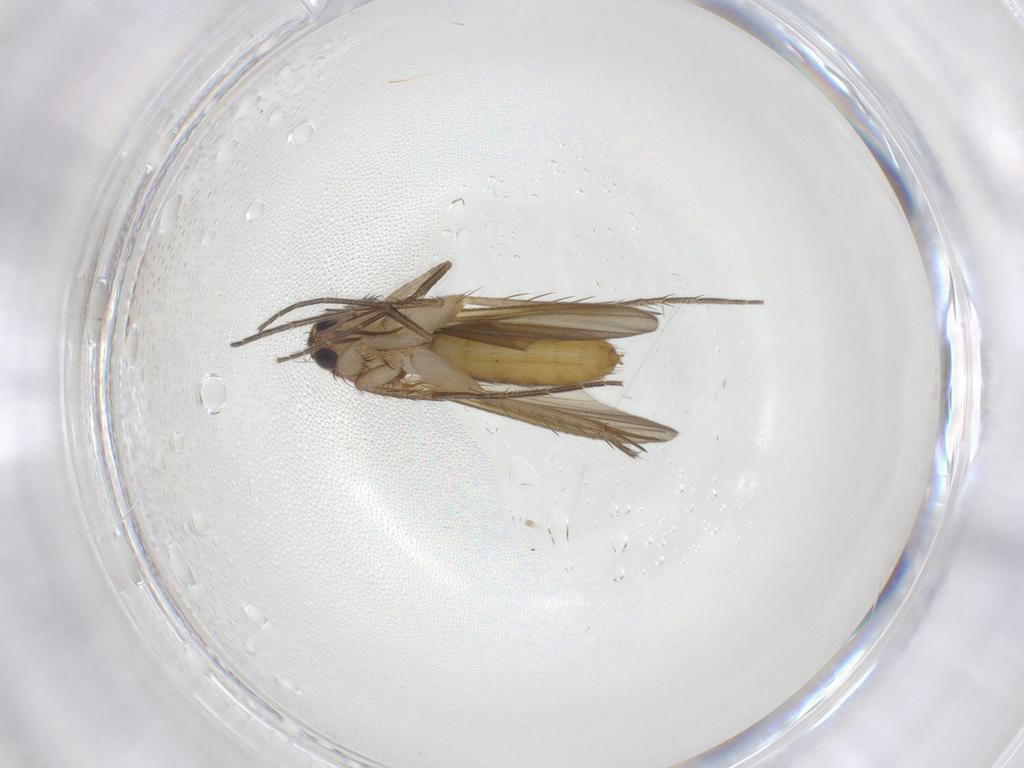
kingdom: Animalia
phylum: Arthropoda
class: Insecta
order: Diptera
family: Mycetophilidae
